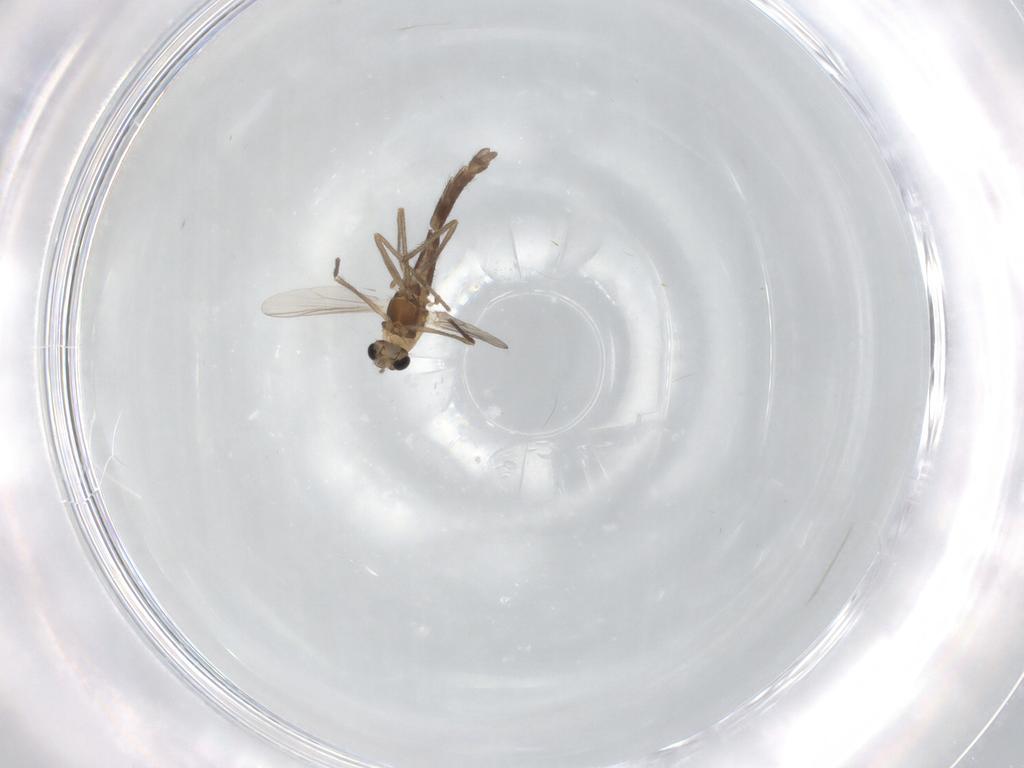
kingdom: Animalia
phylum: Arthropoda
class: Insecta
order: Diptera
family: Chironomidae
